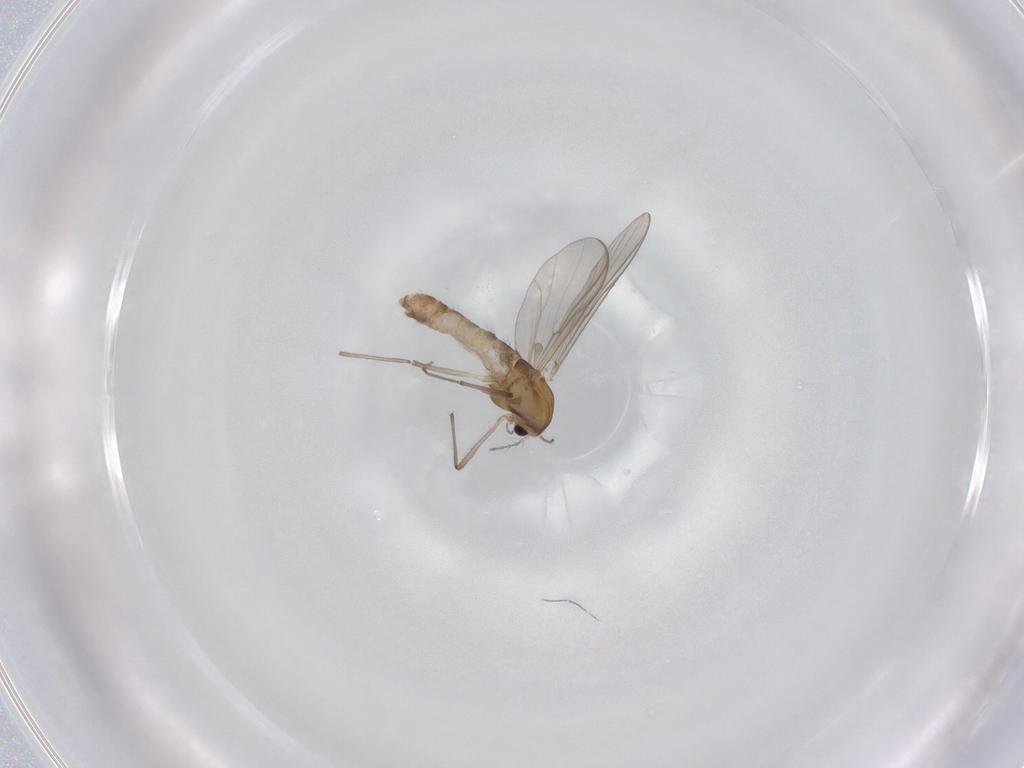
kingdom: Animalia
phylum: Arthropoda
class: Insecta
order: Diptera
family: Chironomidae
